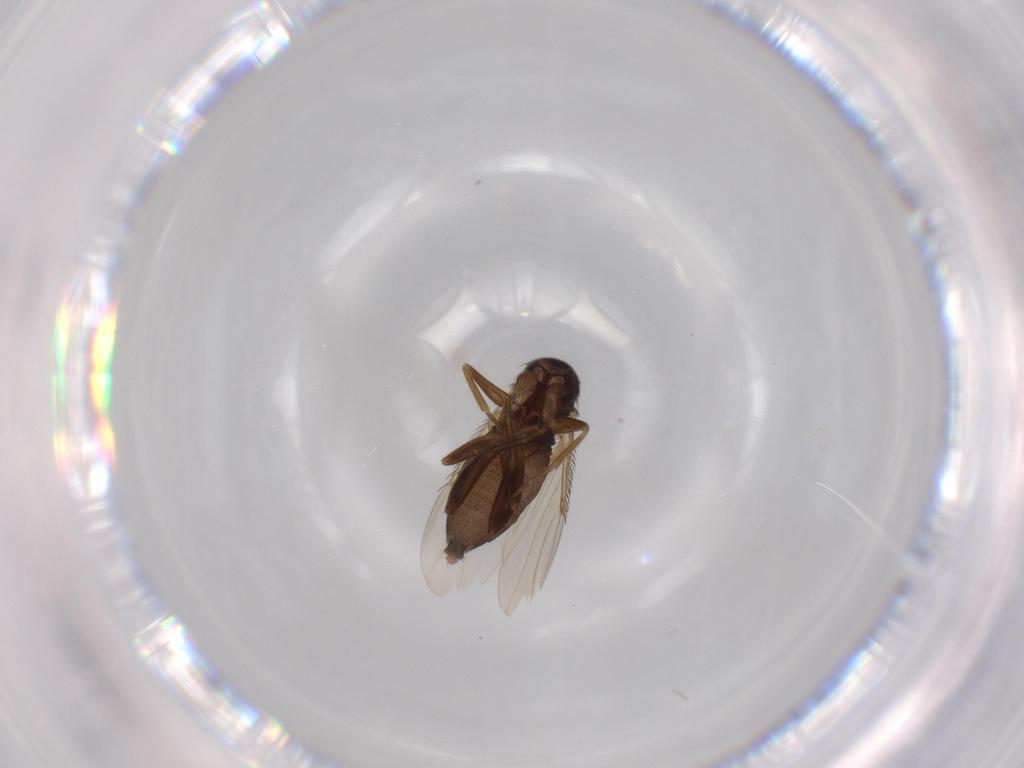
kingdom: Animalia
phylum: Arthropoda
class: Insecta
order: Diptera
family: Phoridae
